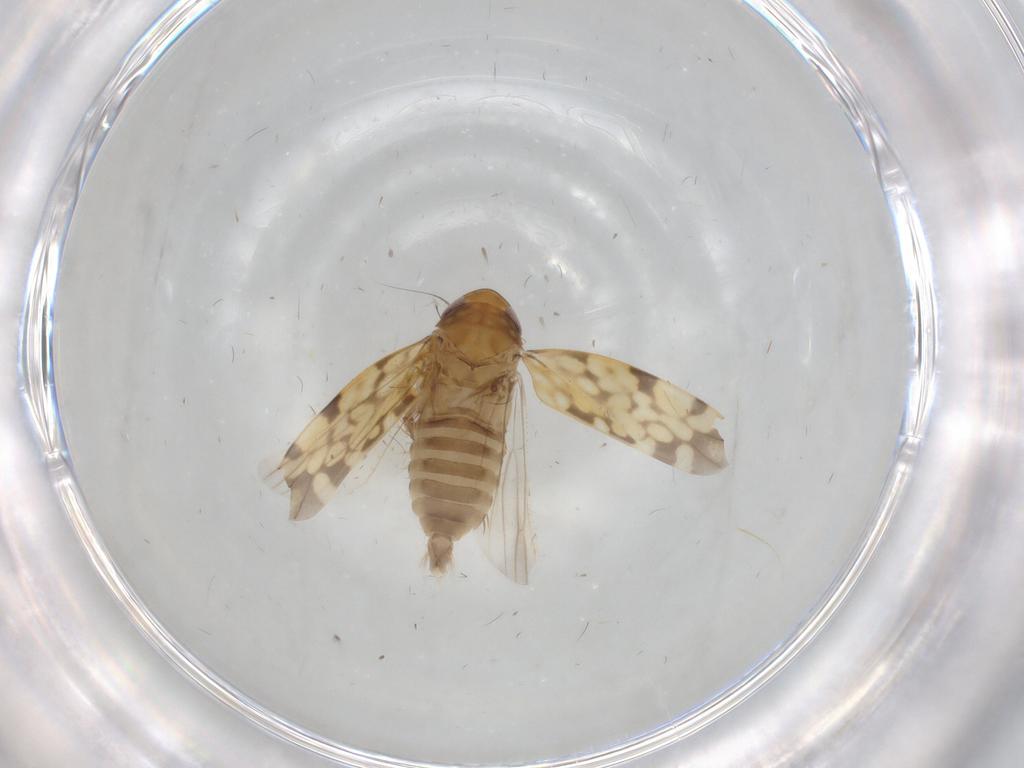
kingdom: Animalia
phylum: Arthropoda
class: Insecta
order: Hemiptera
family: Cicadellidae
